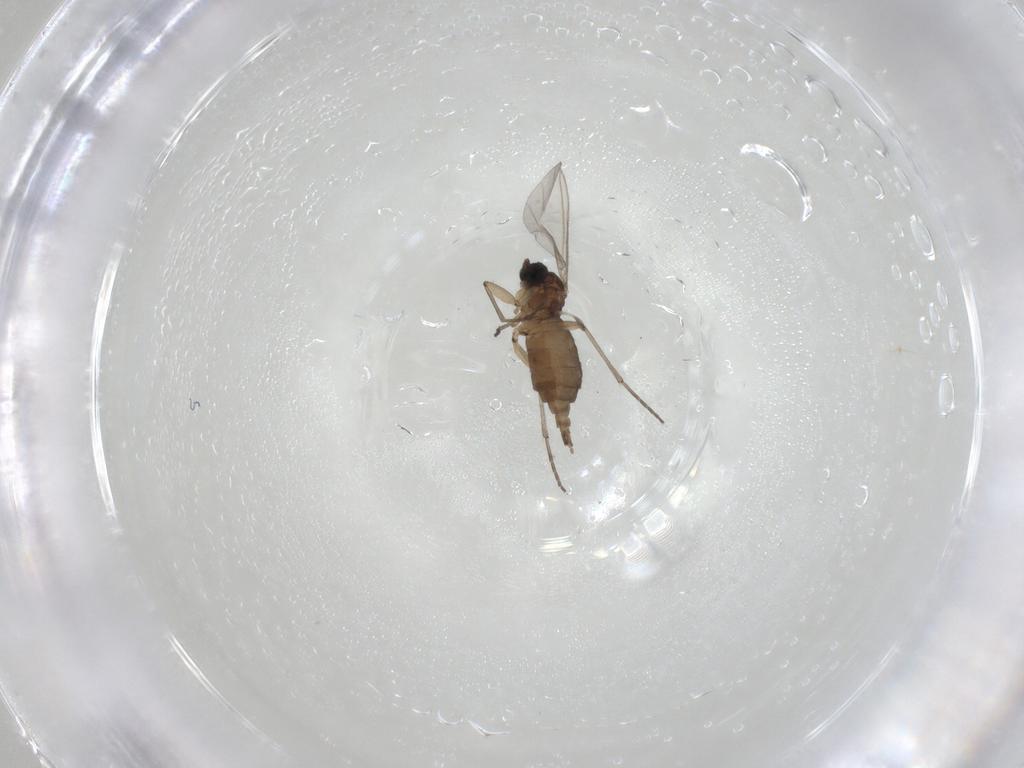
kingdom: Animalia
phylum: Arthropoda
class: Insecta
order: Diptera
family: Sciaridae
